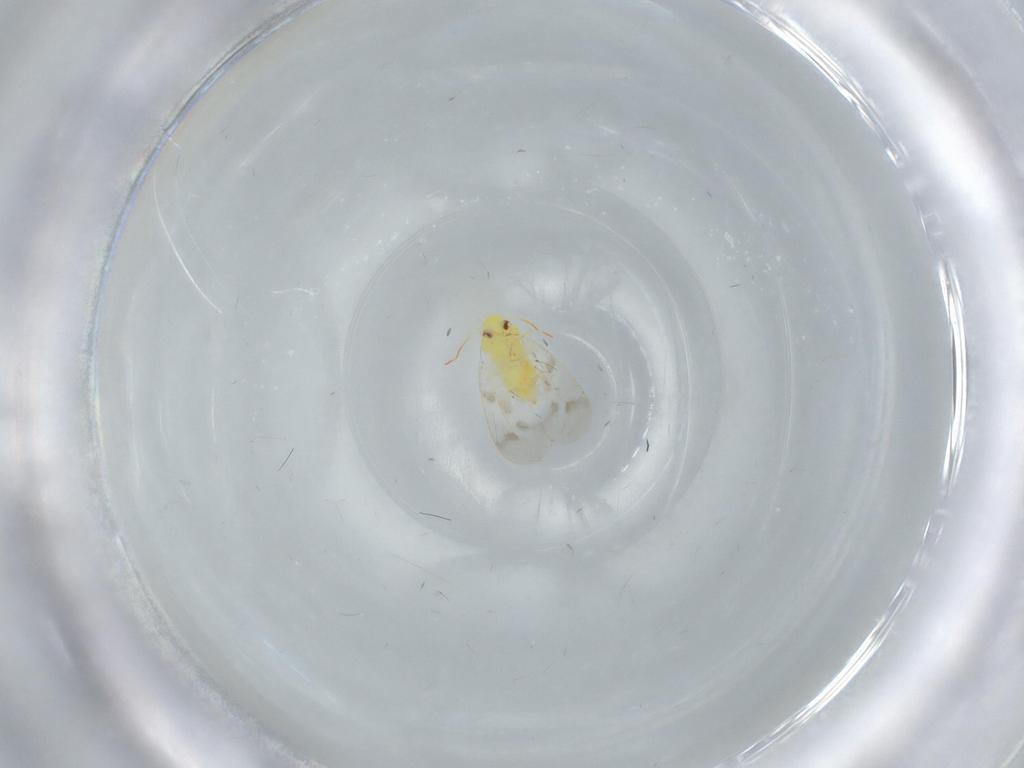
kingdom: Animalia
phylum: Arthropoda
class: Insecta
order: Hemiptera
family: Aleyrodidae
